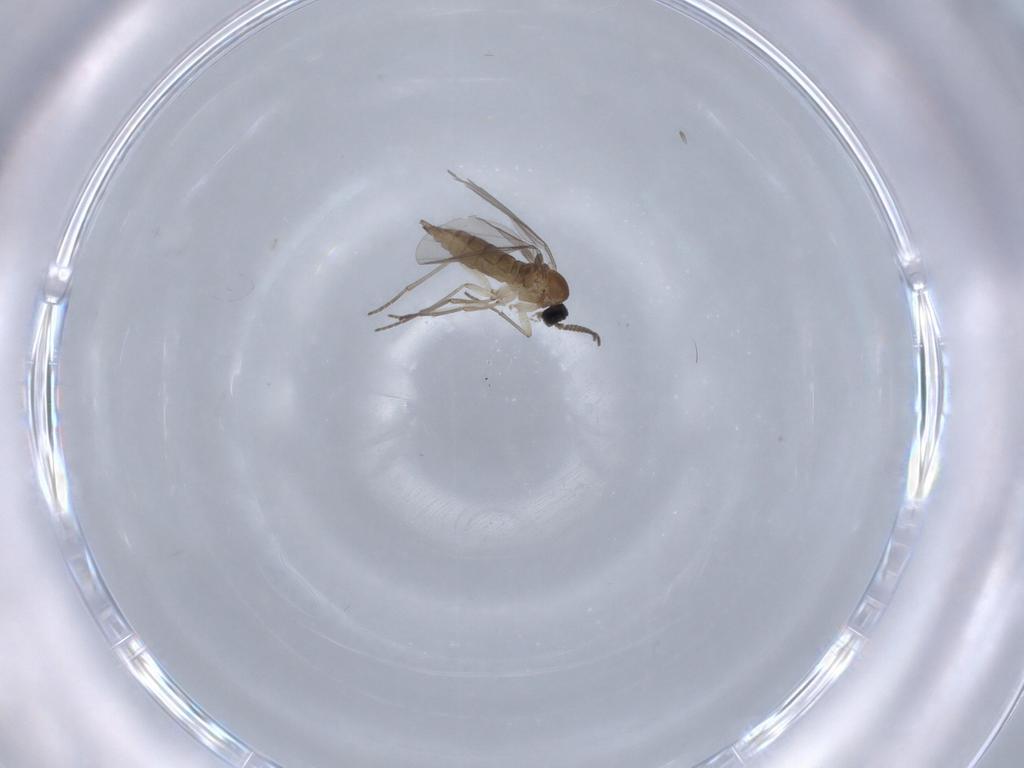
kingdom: Animalia
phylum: Arthropoda
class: Insecta
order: Diptera
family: Sciaridae
